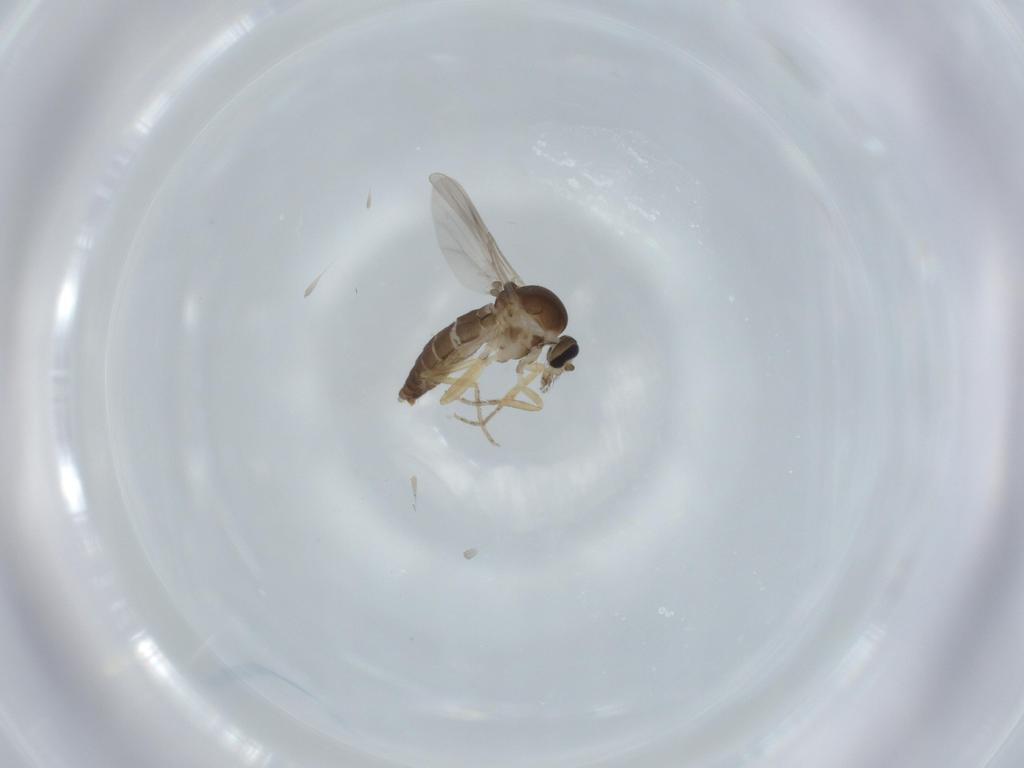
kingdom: Animalia
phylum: Arthropoda
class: Insecta
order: Diptera
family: Ceratopogonidae
